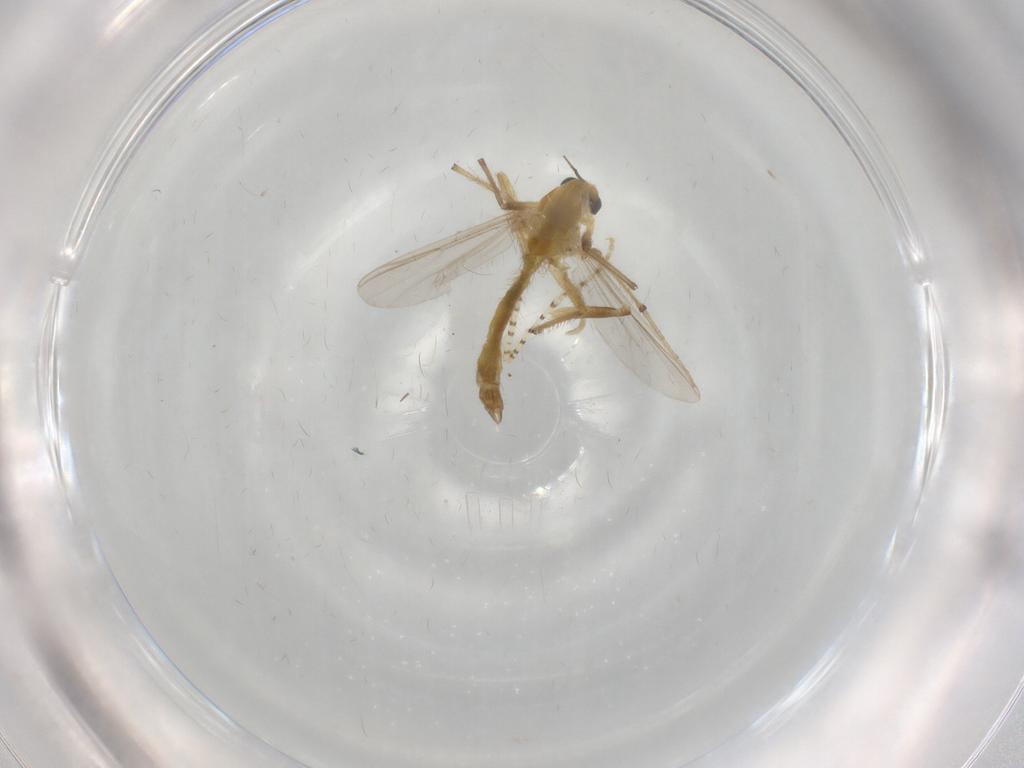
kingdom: Animalia
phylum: Arthropoda
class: Insecta
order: Diptera
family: Chironomidae
